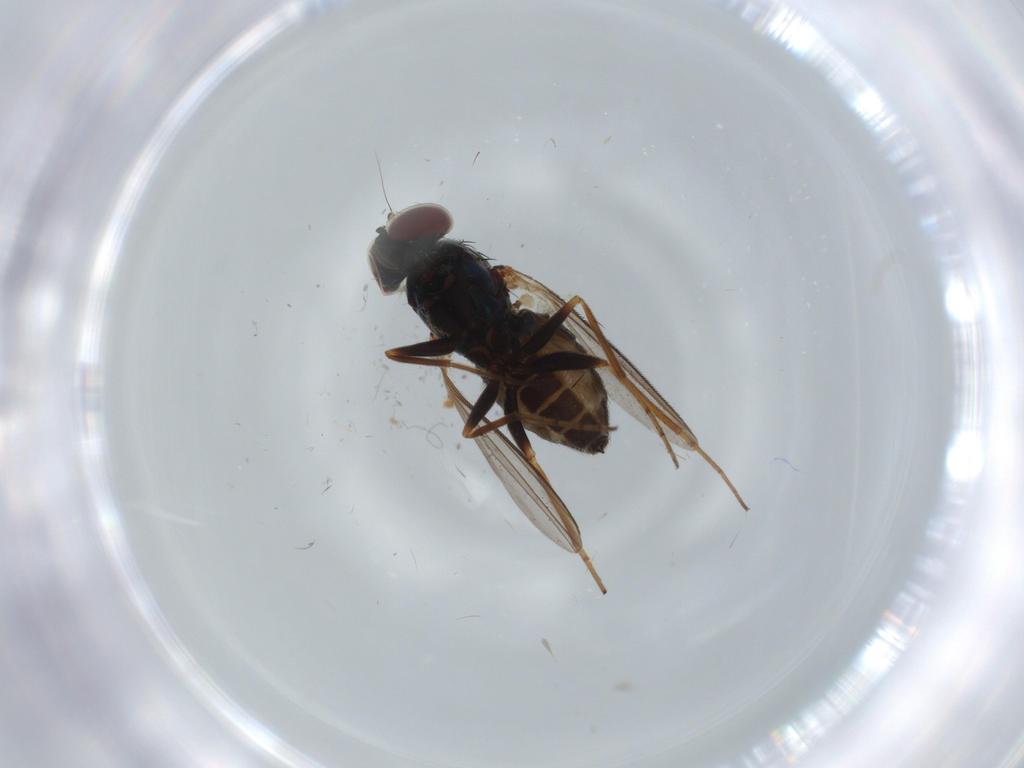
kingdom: Animalia
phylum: Arthropoda
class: Insecta
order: Diptera
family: Dolichopodidae
